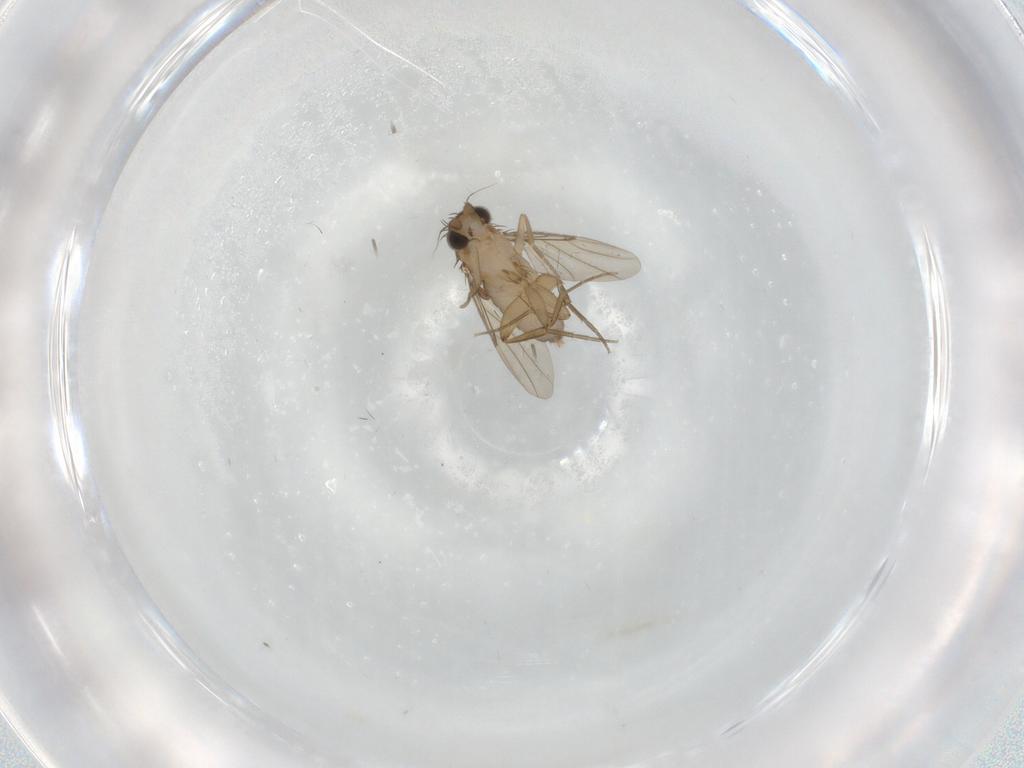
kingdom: Animalia
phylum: Arthropoda
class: Insecta
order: Diptera
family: Phoridae
